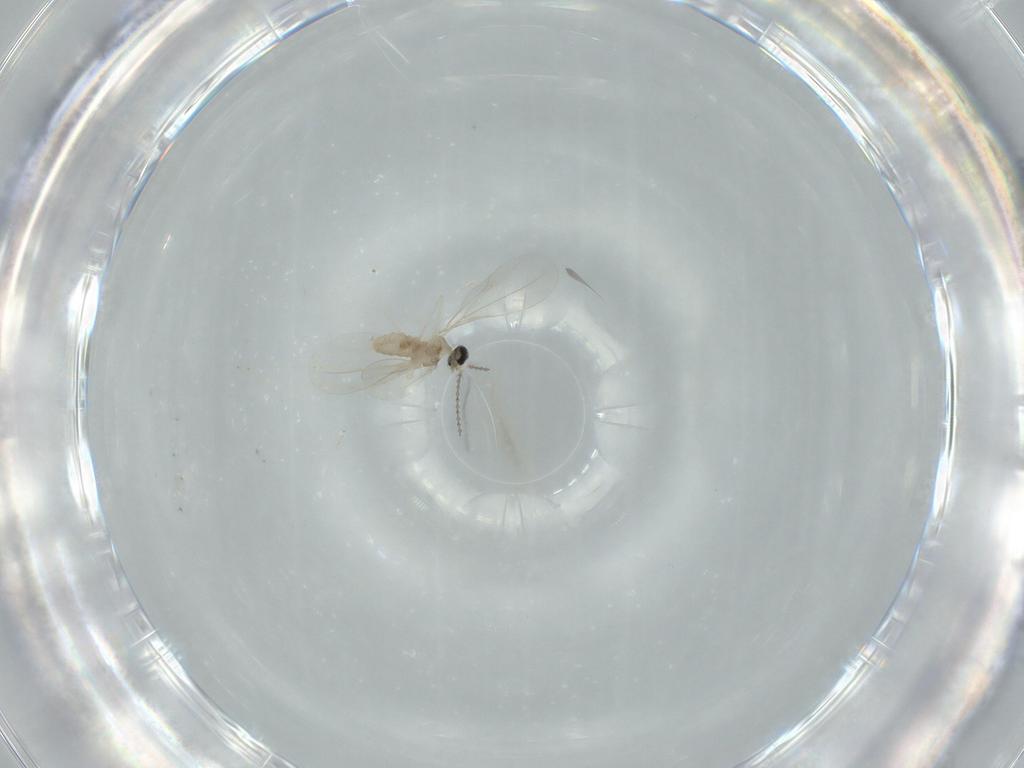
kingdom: Animalia
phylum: Arthropoda
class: Insecta
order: Diptera
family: Cecidomyiidae
